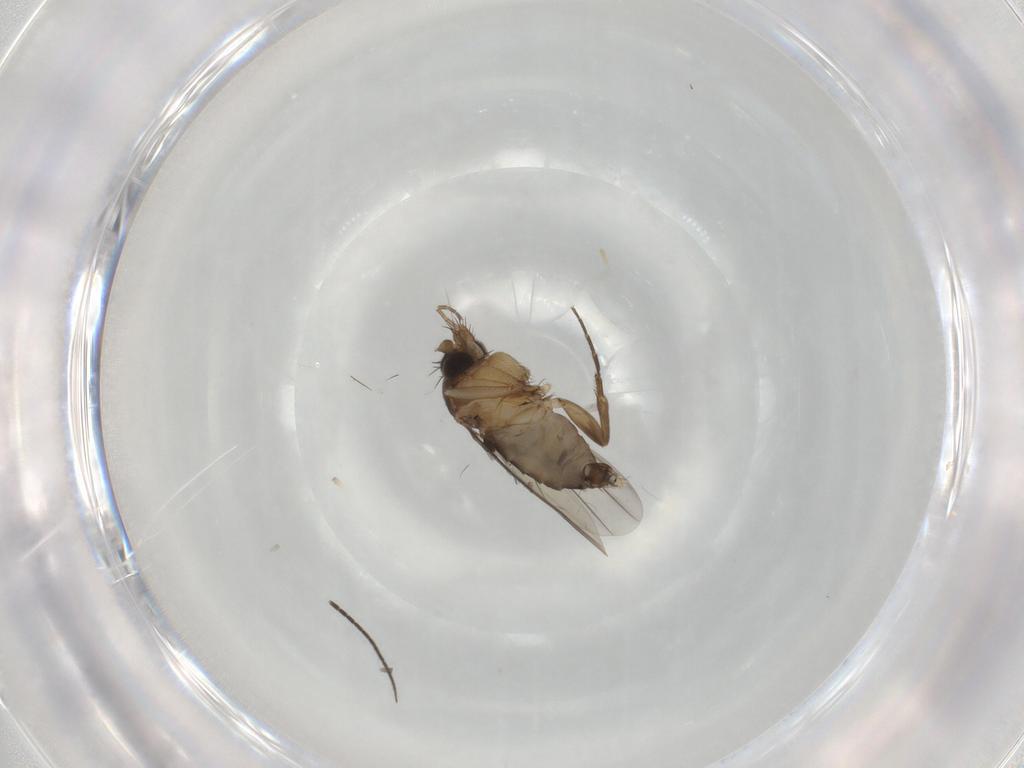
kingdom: Animalia
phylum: Arthropoda
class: Insecta
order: Diptera
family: Phoridae
